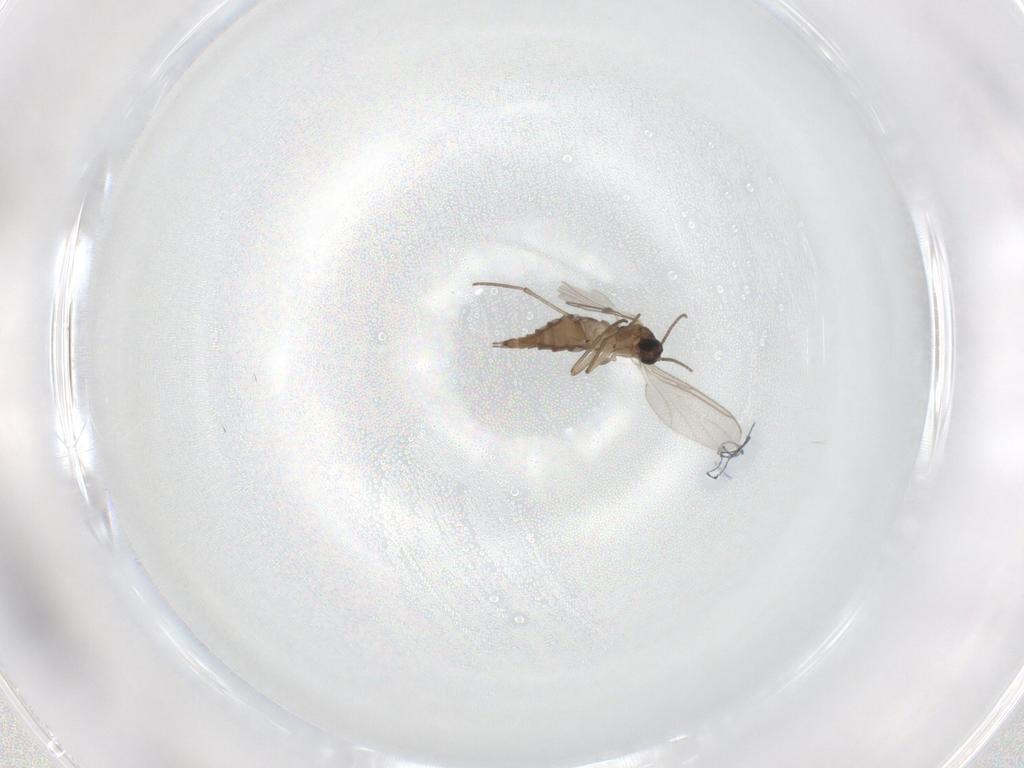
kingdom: Animalia
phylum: Arthropoda
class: Insecta
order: Diptera
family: Sciaridae
